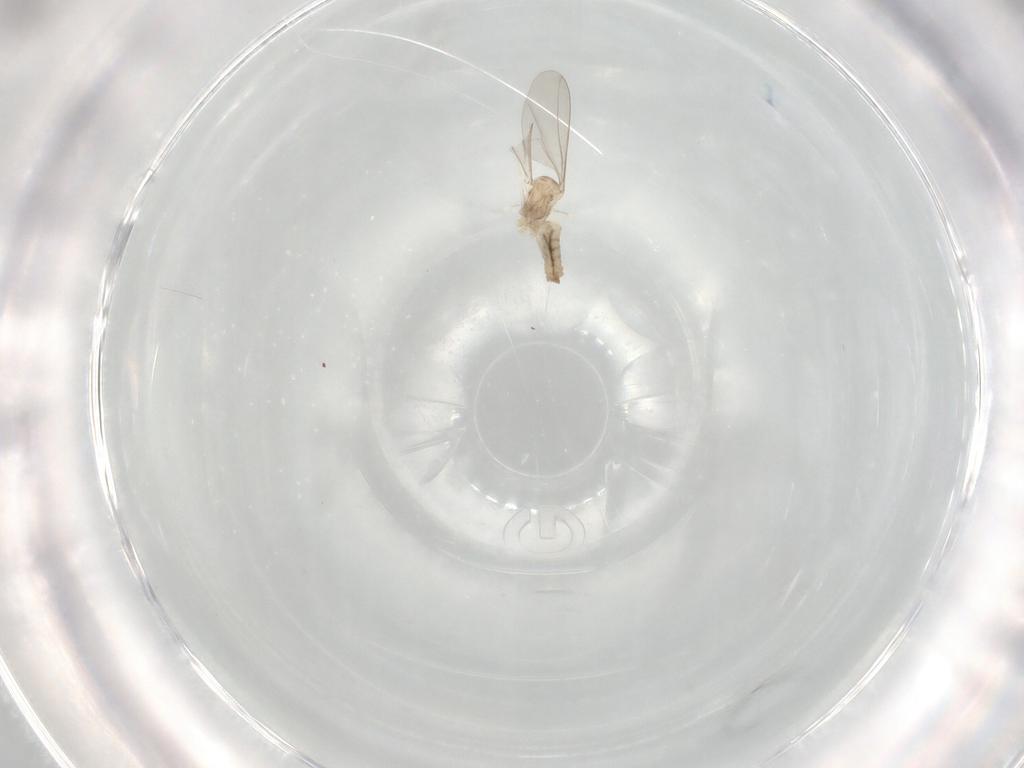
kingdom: Animalia
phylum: Arthropoda
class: Insecta
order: Diptera
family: Cecidomyiidae
